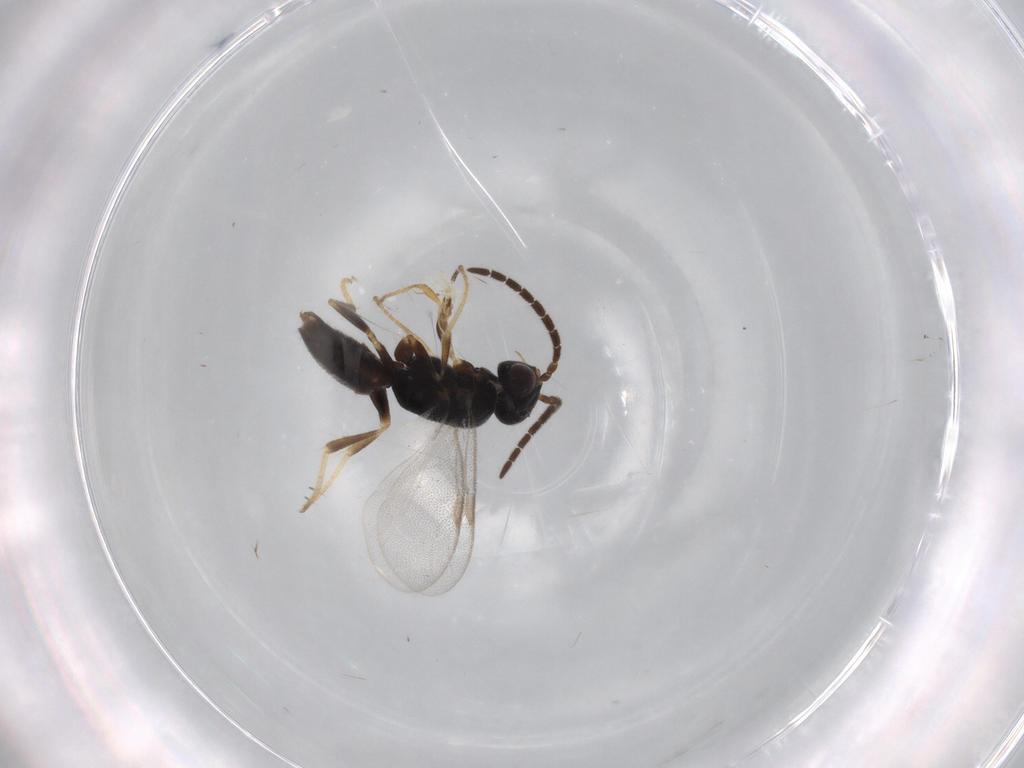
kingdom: Animalia
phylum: Arthropoda
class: Insecta
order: Hymenoptera
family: Dryinidae
